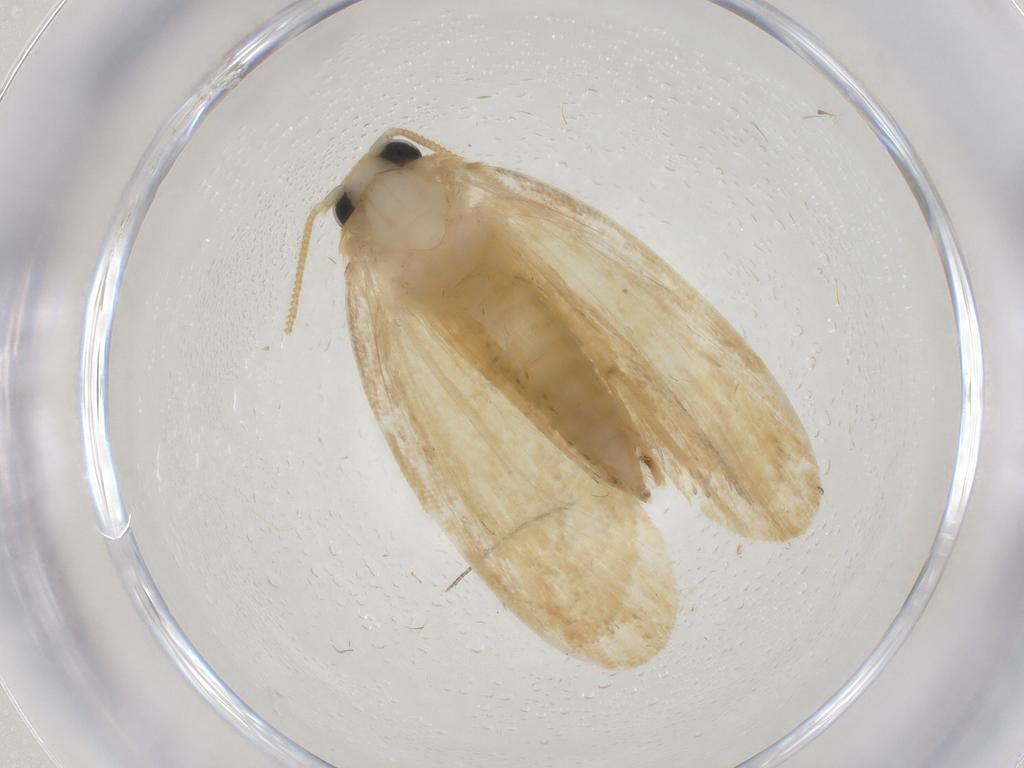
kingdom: Animalia
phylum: Arthropoda
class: Insecta
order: Lepidoptera
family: Psychidae
